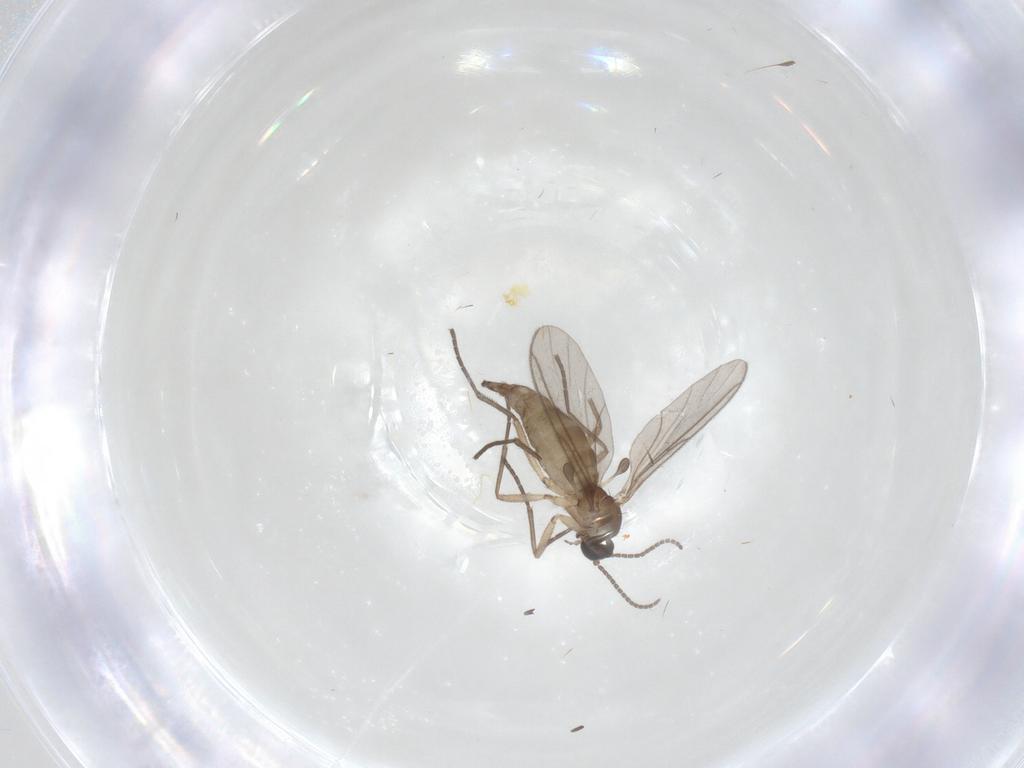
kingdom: Animalia
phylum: Arthropoda
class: Insecta
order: Diptera
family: Sciaridae
